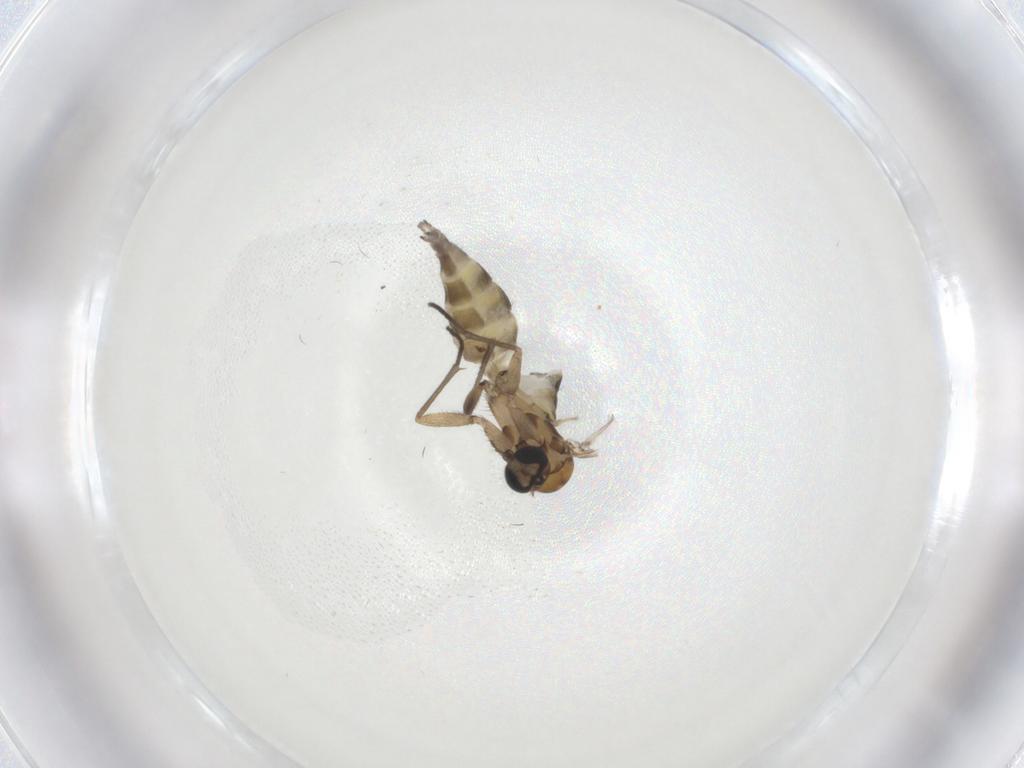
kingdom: Animalia
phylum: Arthropoda
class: Insecta
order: Diptera
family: Sciaridae
